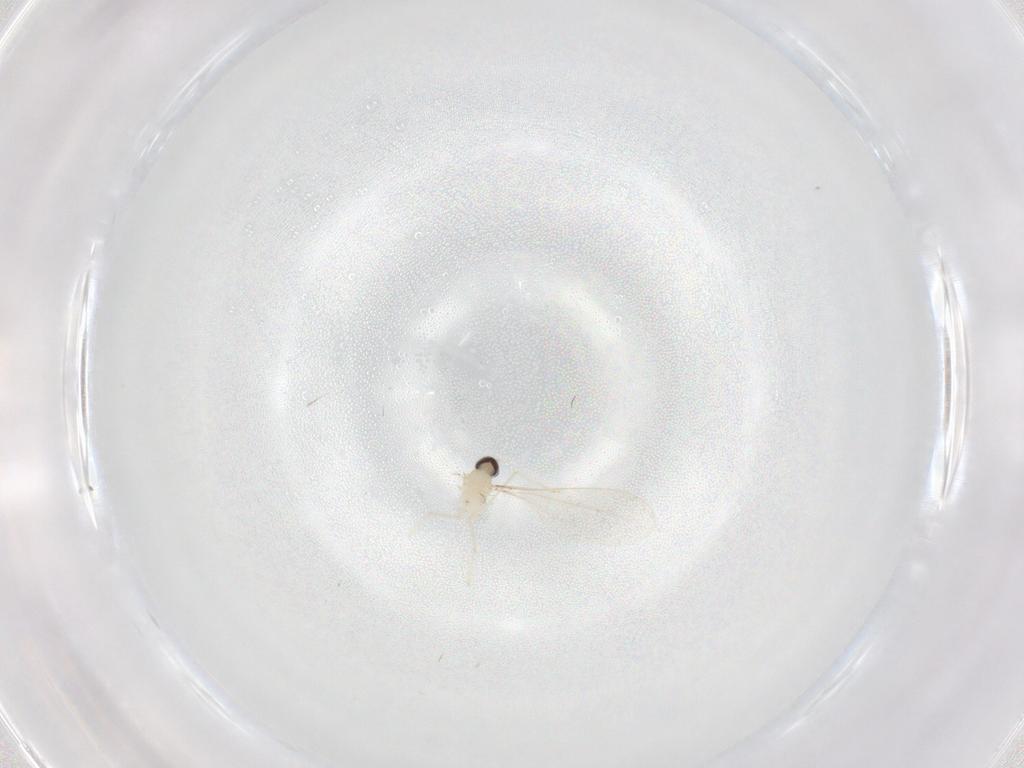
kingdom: Animalia
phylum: Arthropoda
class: Insecta
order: Diptera
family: Cecidomyiidae
